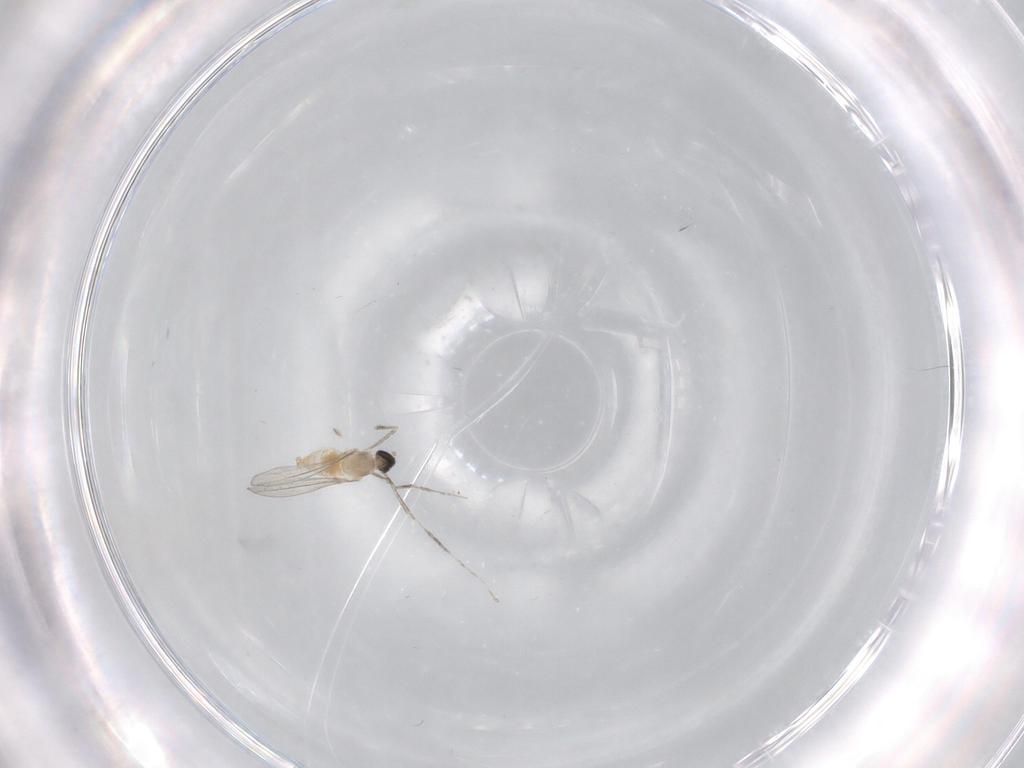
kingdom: Animalia
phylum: Arthropoda
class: Insecta
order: Diptera
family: Cecidomyiidae
